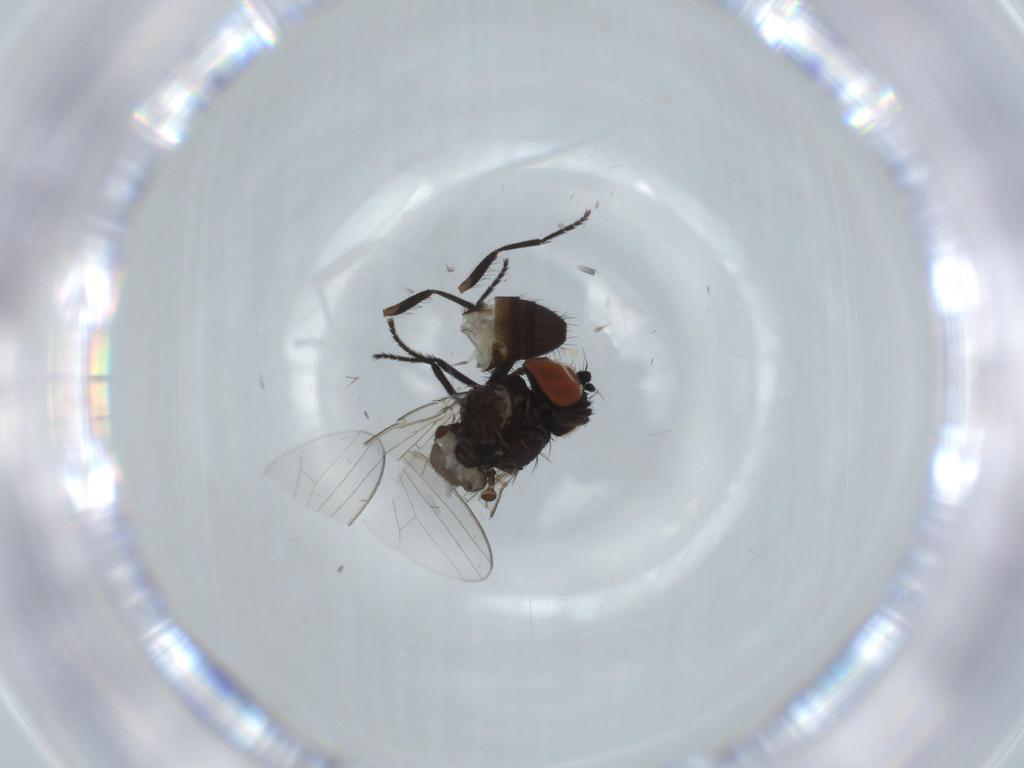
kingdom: Animalia
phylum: Arthropoda
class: Insecta
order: Diptera
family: Milichiidae
